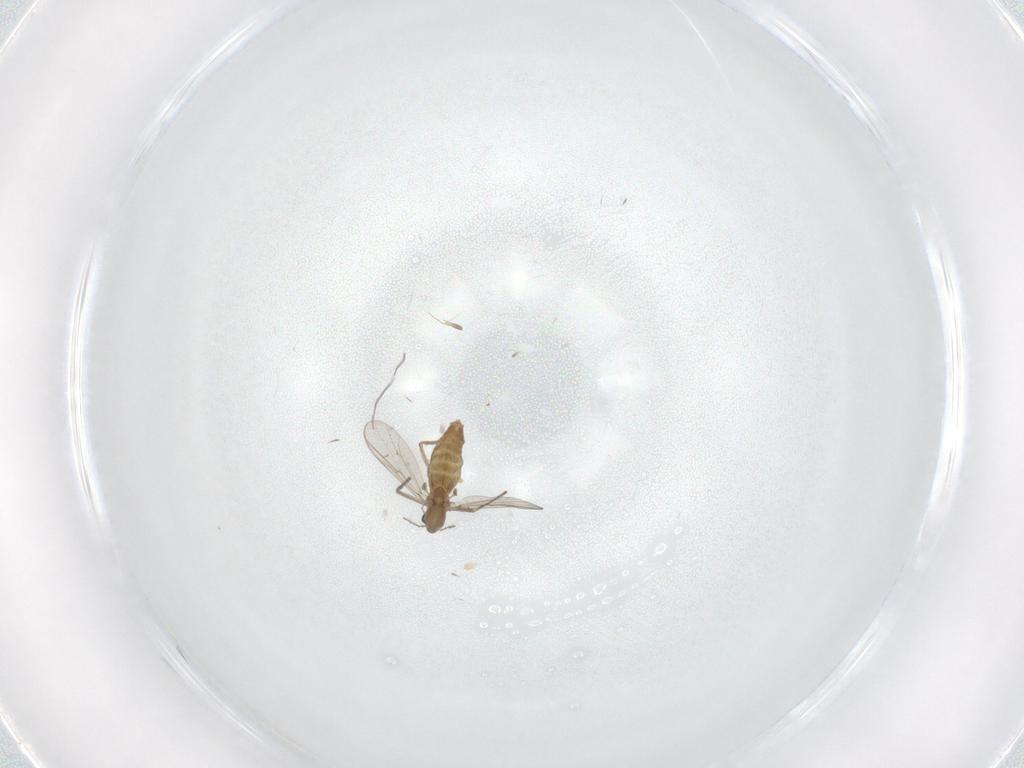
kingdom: Animalia
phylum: Arthropoda
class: Insecta
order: Diptera
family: Chironomidae
